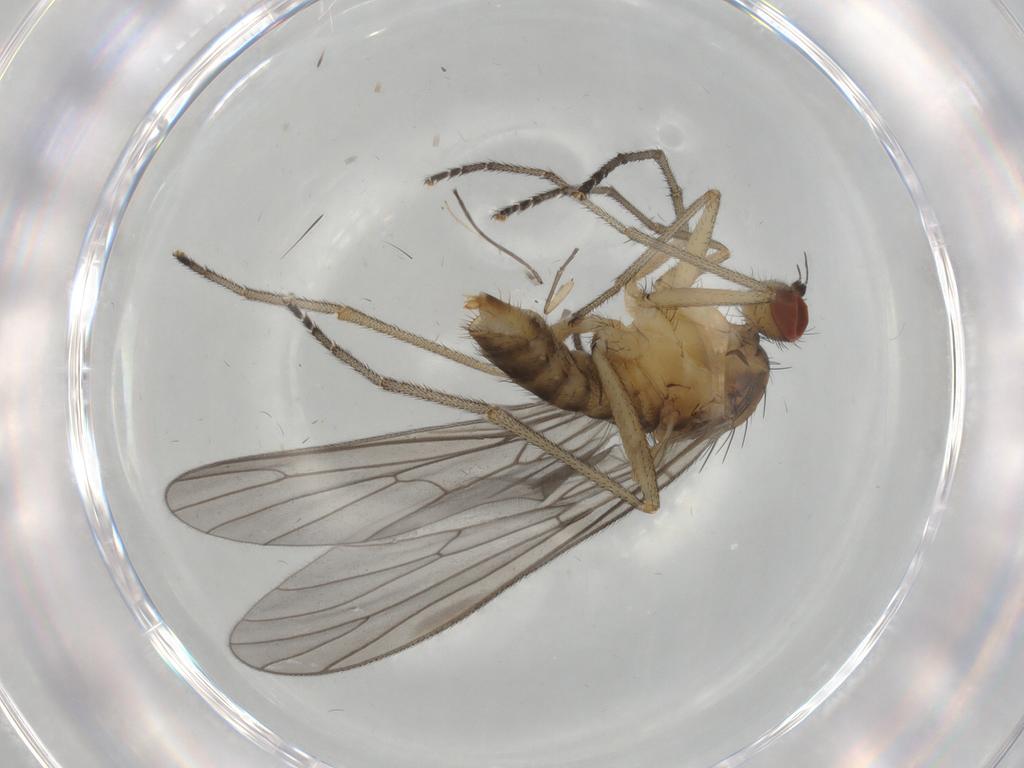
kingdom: Animalia
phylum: Arthropoda
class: Insecta
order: Diptera
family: Brachystomatidae
